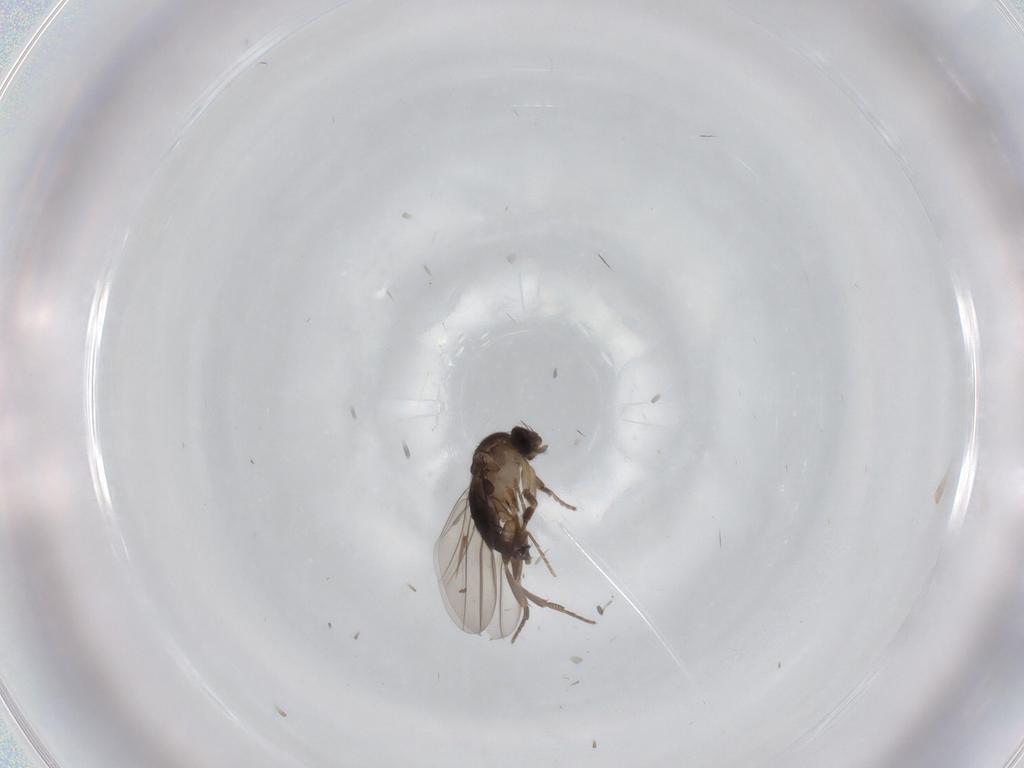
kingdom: Animalia
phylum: Arthropoda
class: Insecta
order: Diptera
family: Phoridae
